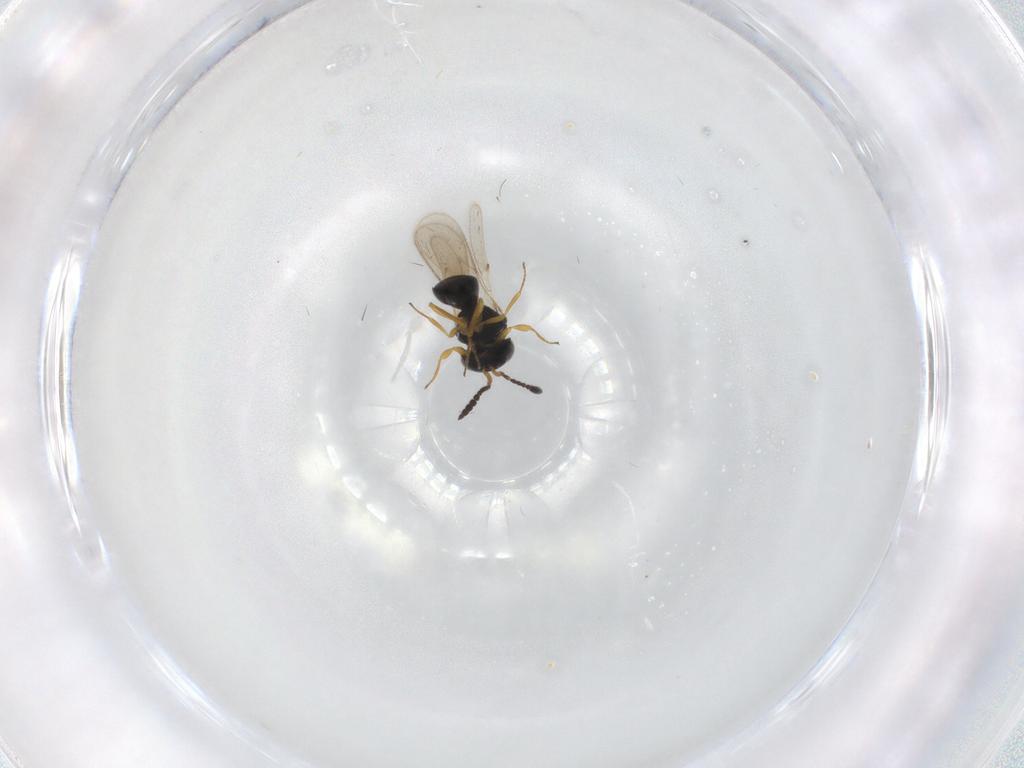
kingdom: Animalia
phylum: Arthropoda
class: Insecta
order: Hymenoptera
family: Scelionidae
